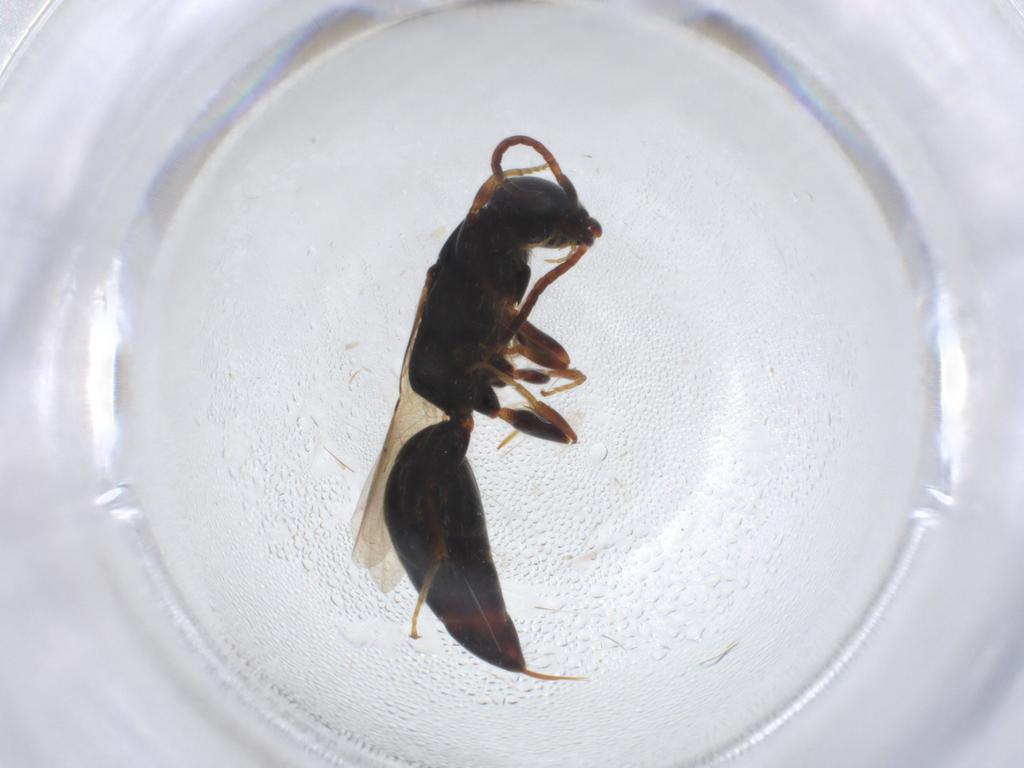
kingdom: Animalia
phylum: Arthropoda
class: Insecta
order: Hymenoptera
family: Bethylidae
